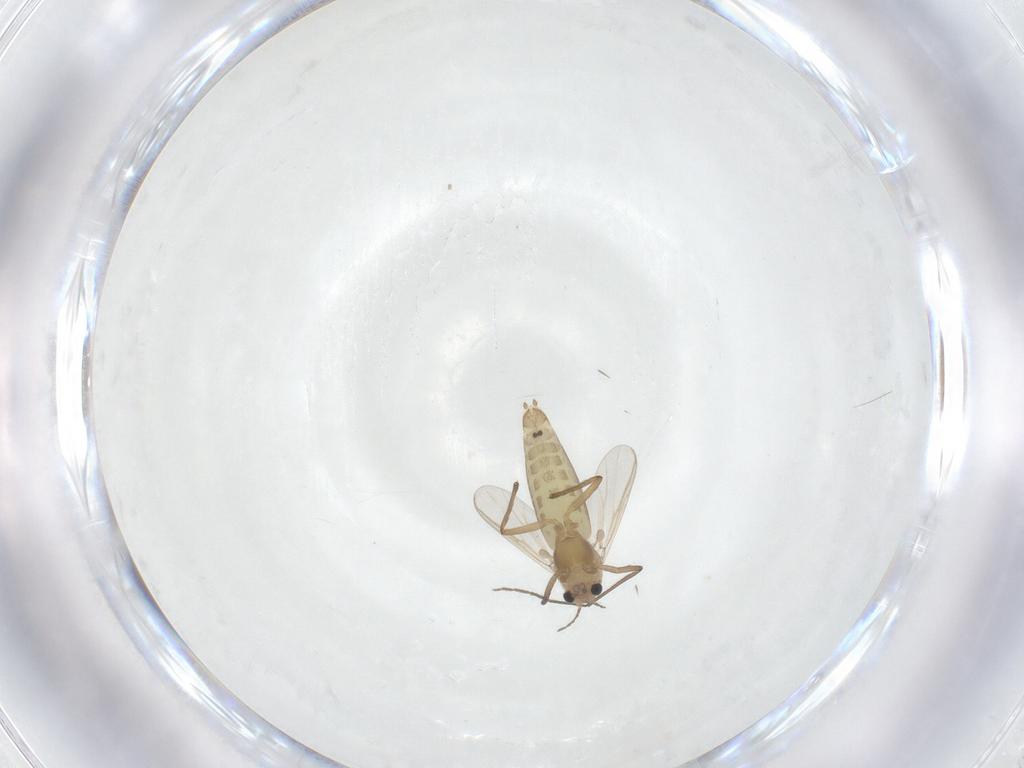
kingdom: Animalia
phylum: Arthropoda
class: Insecta
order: Diptera
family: Chironomidae
